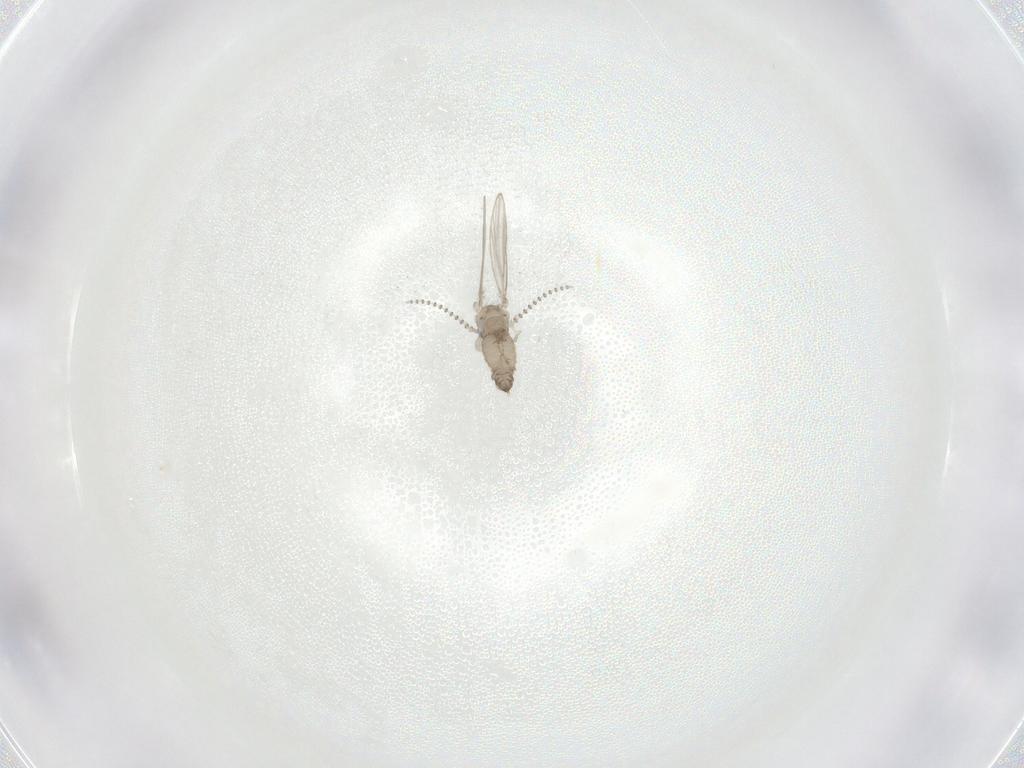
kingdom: Animalia
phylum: Arthropoda
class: Insecta
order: Diptera
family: Psychodidae
